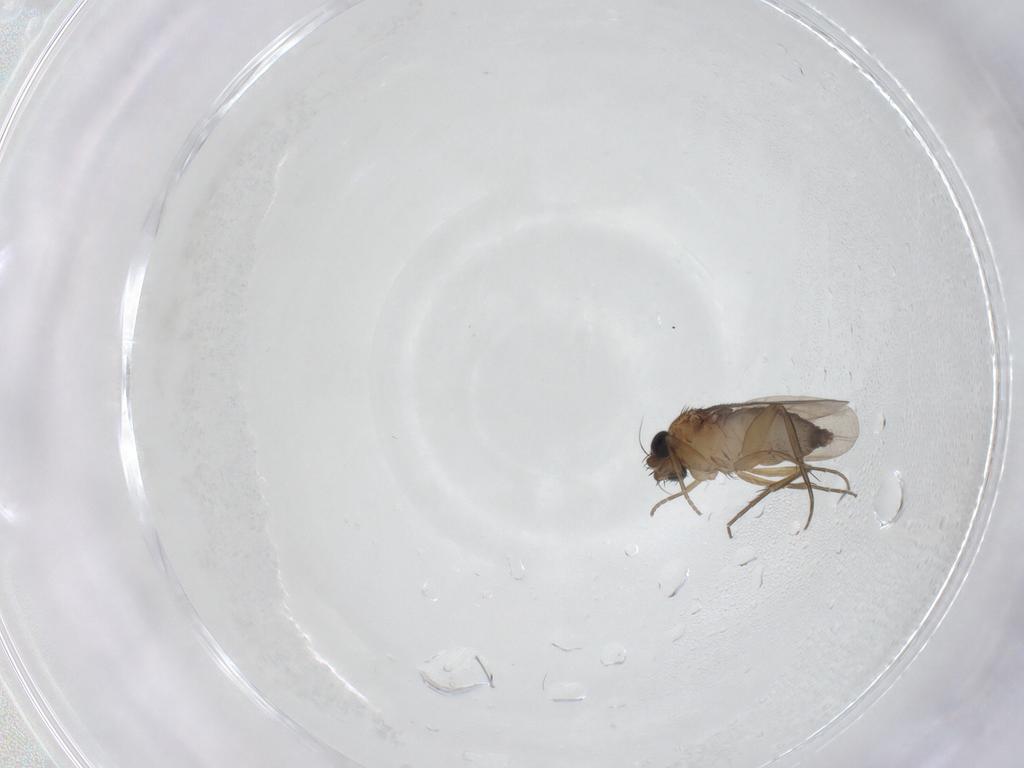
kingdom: Animalia
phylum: Arthropoda
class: Insecta
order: Diptera
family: Phoridae
